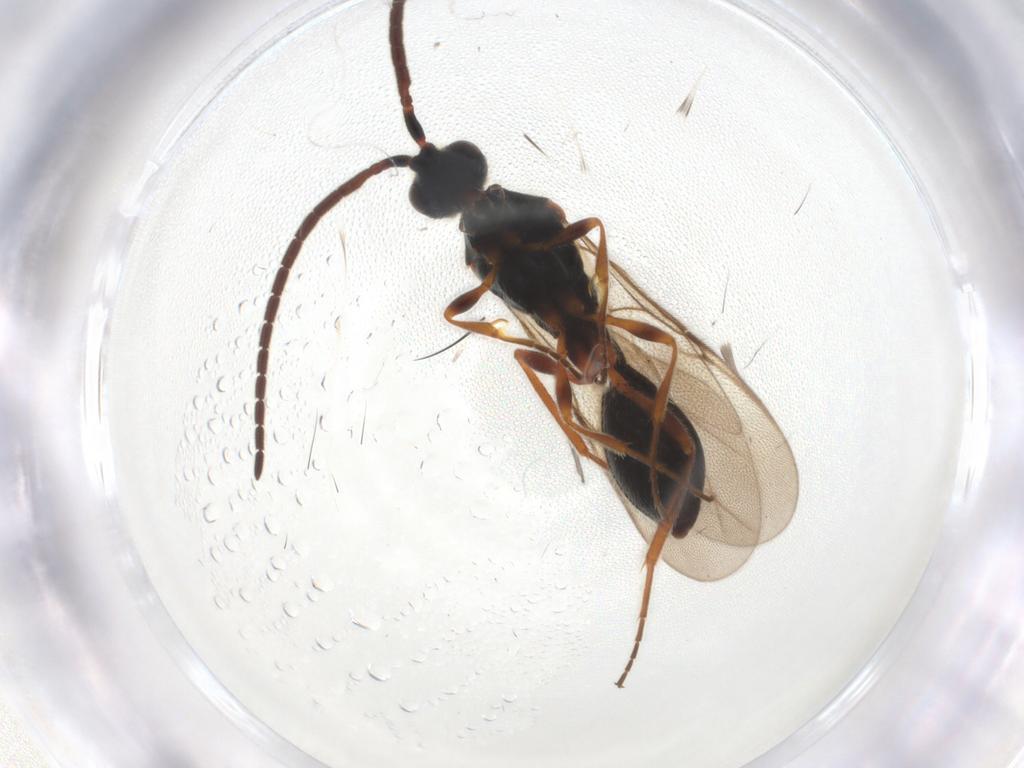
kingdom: Animalia
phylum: Arthropoda
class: Insecta
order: Hymenoptera
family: Diapriidae
